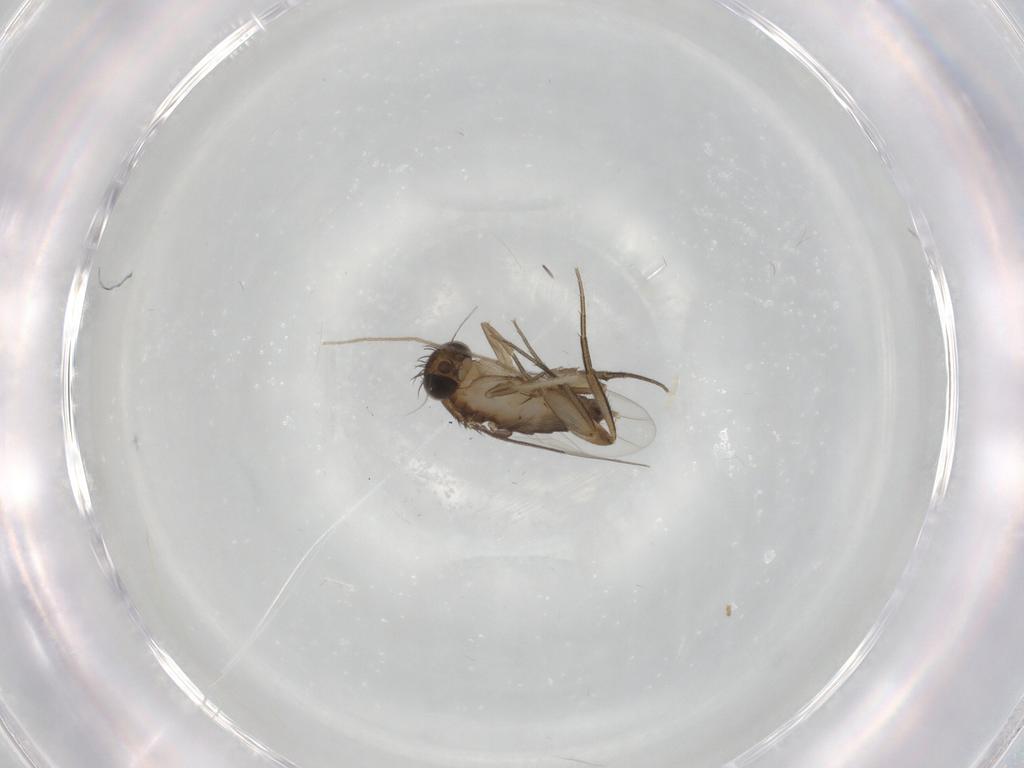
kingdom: Animalia
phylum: Arthropoda
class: Insecta
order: Diptera
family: Phoridae
